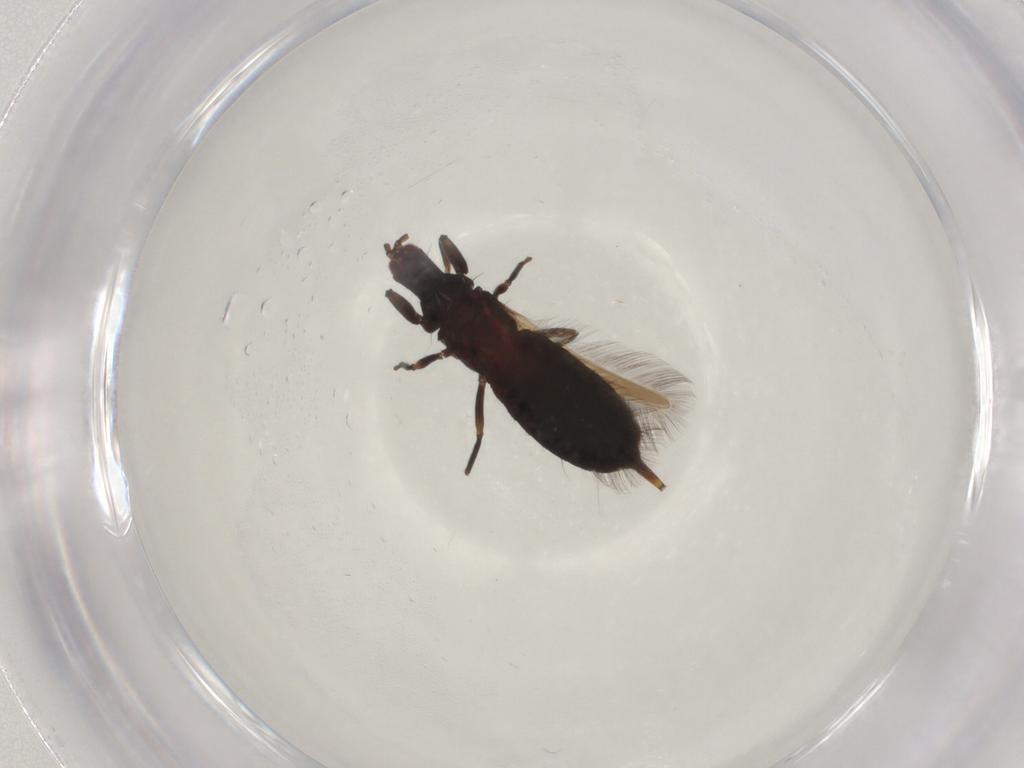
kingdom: Animalia
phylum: Arthropoda
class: Insecta
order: Thysanoptera
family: Phlaeothripidae
